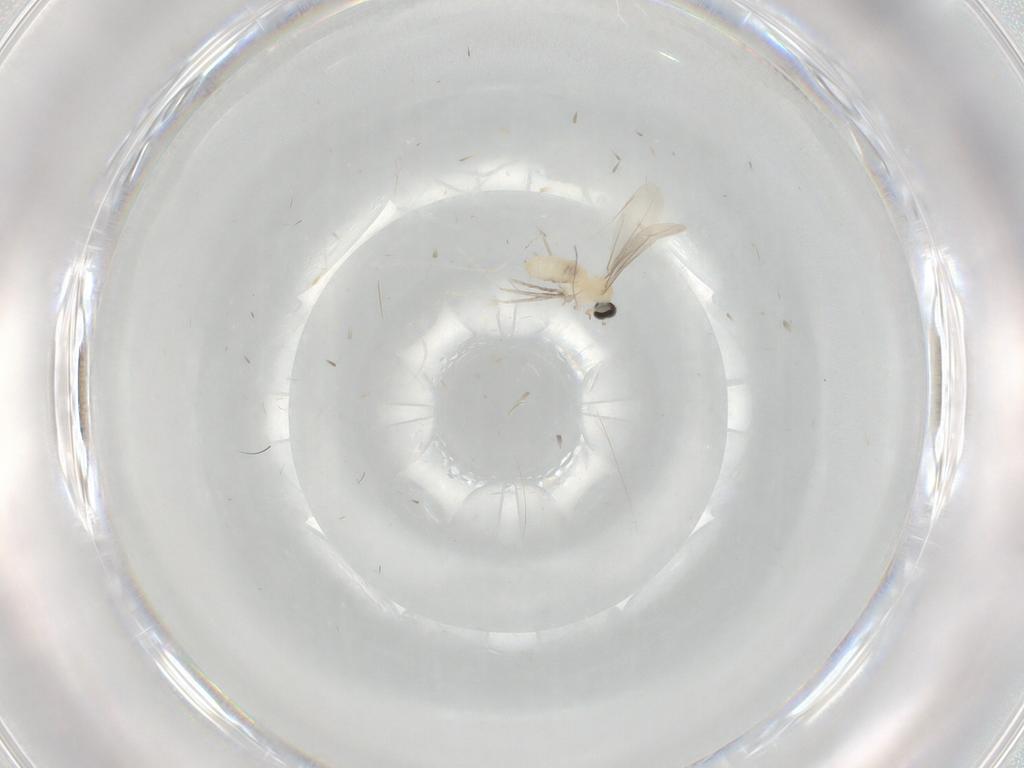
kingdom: Animalia
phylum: Arthropoda
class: Insecta
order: Diptera
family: Cecidomyiidae
